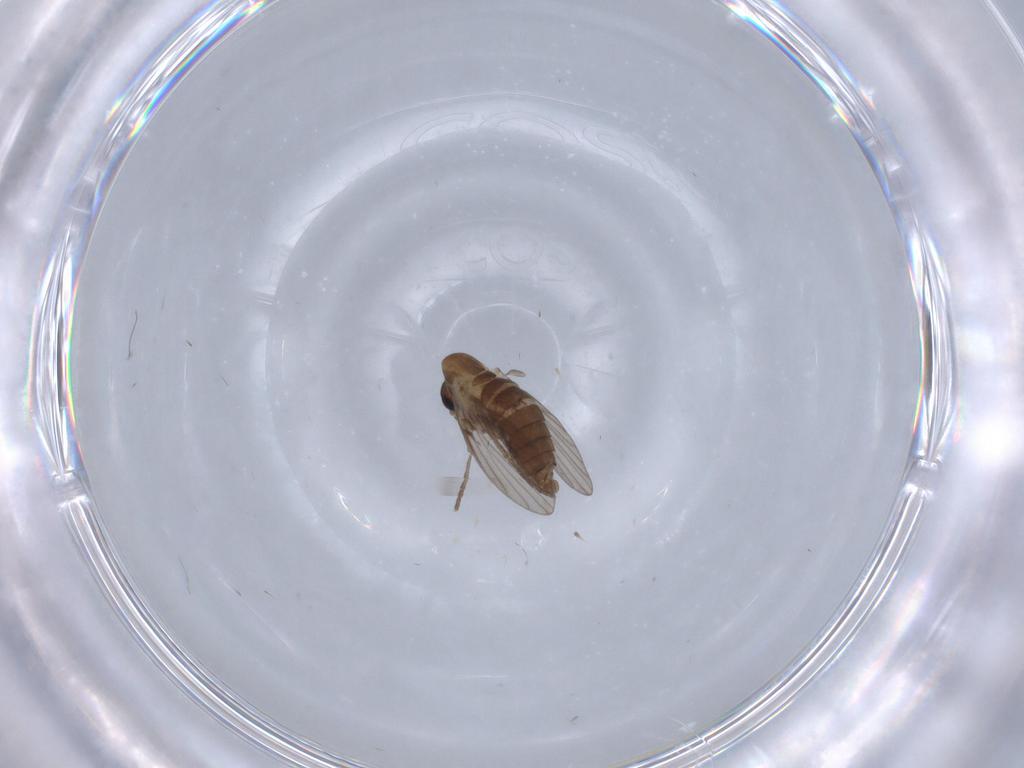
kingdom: Animalia
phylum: Arthropoda
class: Insecta
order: Diptera
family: Psychodidae
